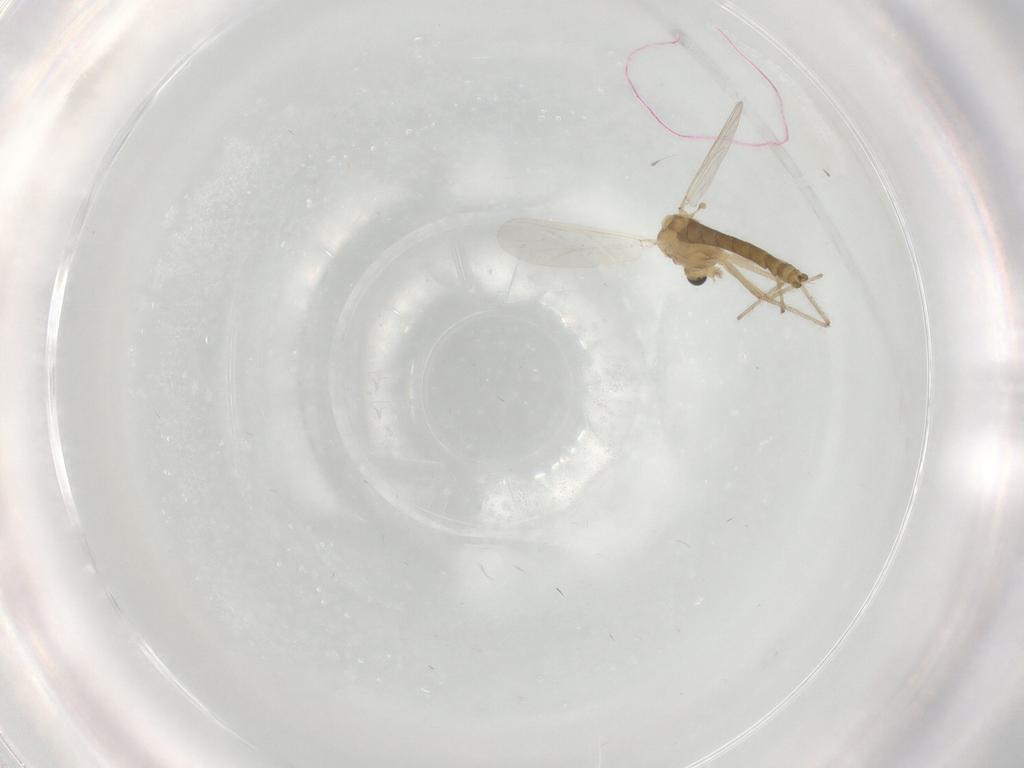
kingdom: Animalia
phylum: Arthropoda
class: Insecta
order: Diptera
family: Chironomidae
